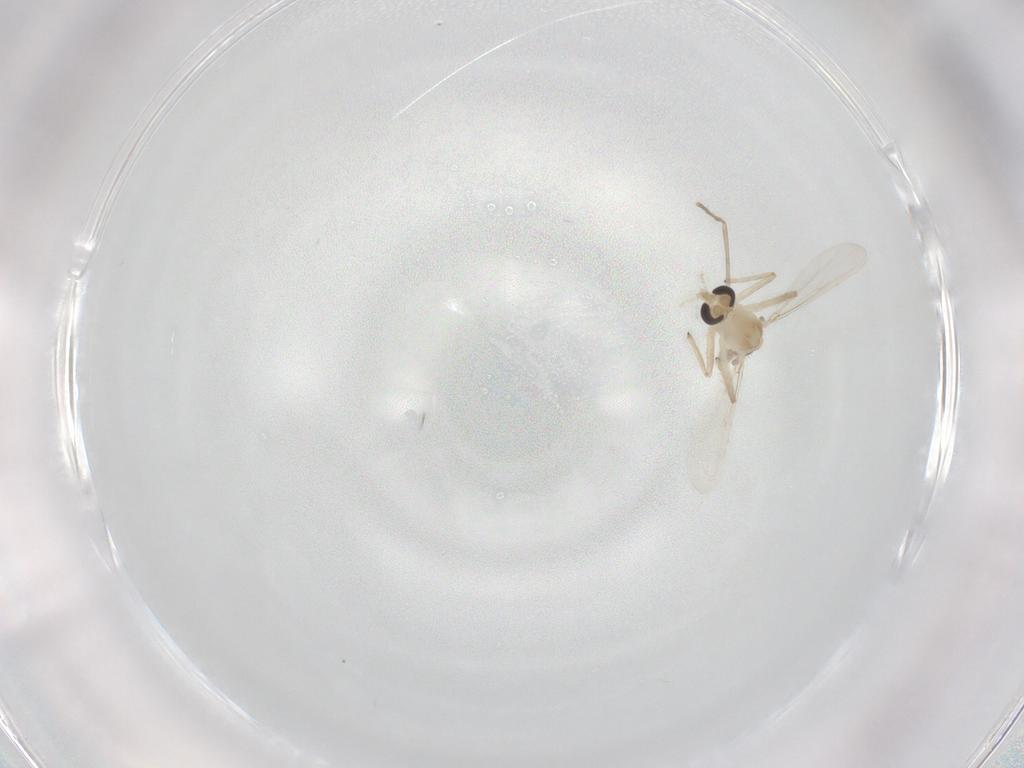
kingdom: Animalia
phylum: Arthropoda
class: Insecta
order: Diptera
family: Chironomidae
